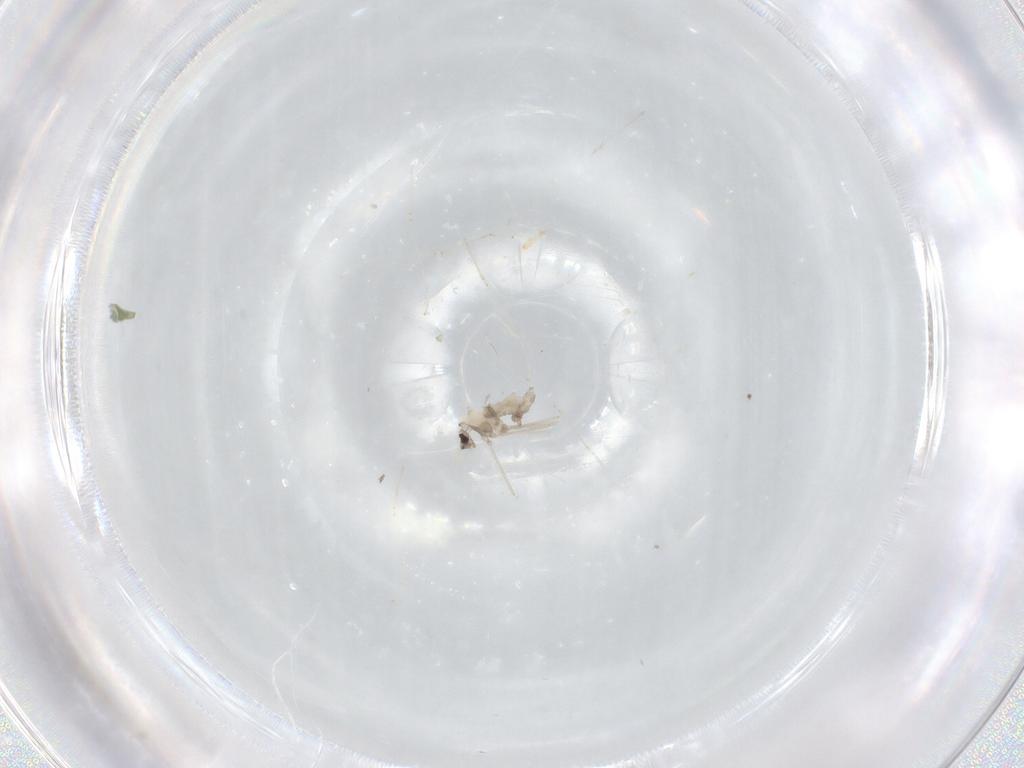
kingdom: Animalia
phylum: Arthropoda
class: Insecta
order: Diptera
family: Cecidomyiidae
